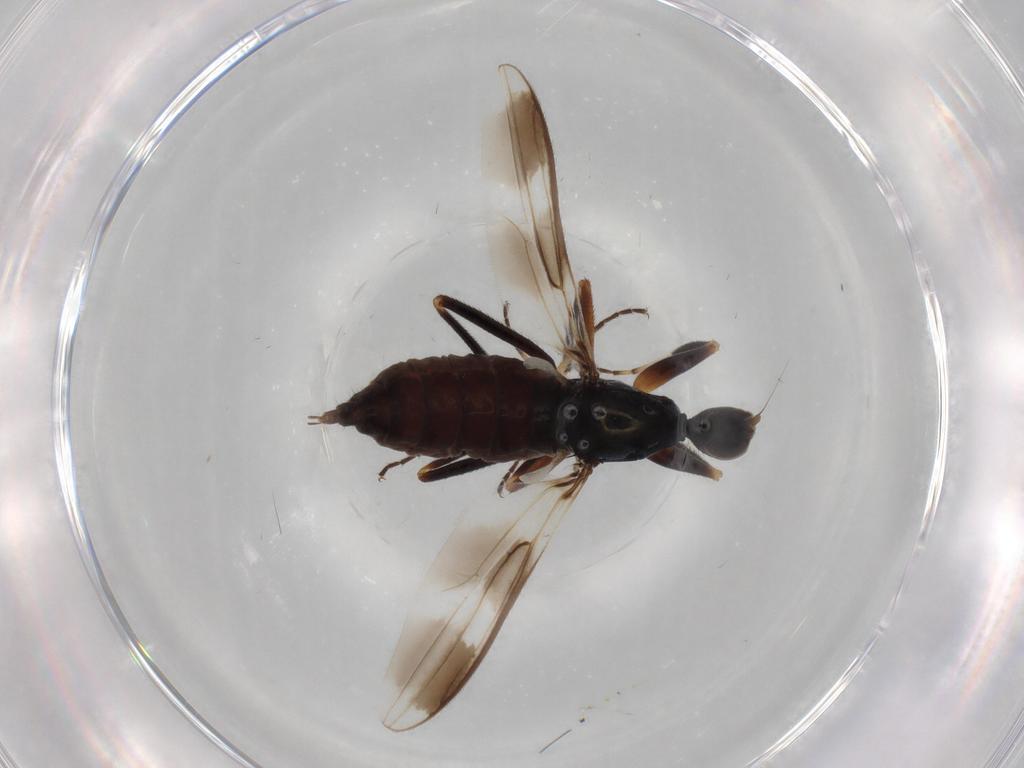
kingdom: Animalia
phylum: Arthropoda
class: Insecta
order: Diptera
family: Hybotidae
